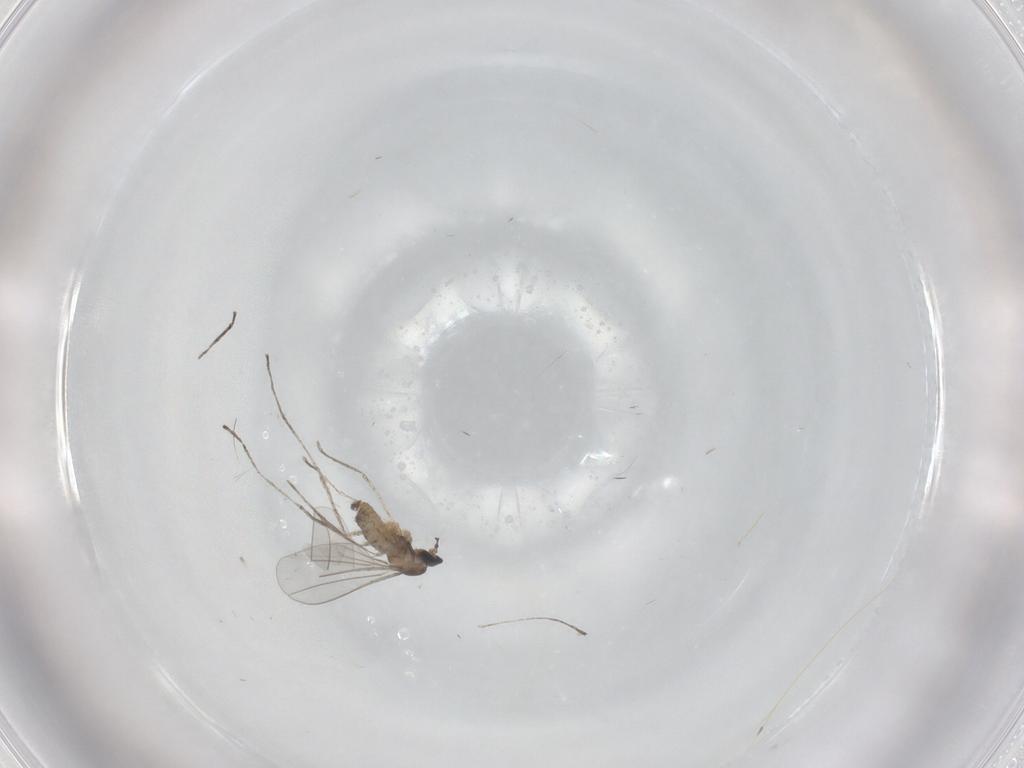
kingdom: Animalia
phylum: Arthropoda
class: Insecta
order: Diptera
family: Cecidomyiidae
